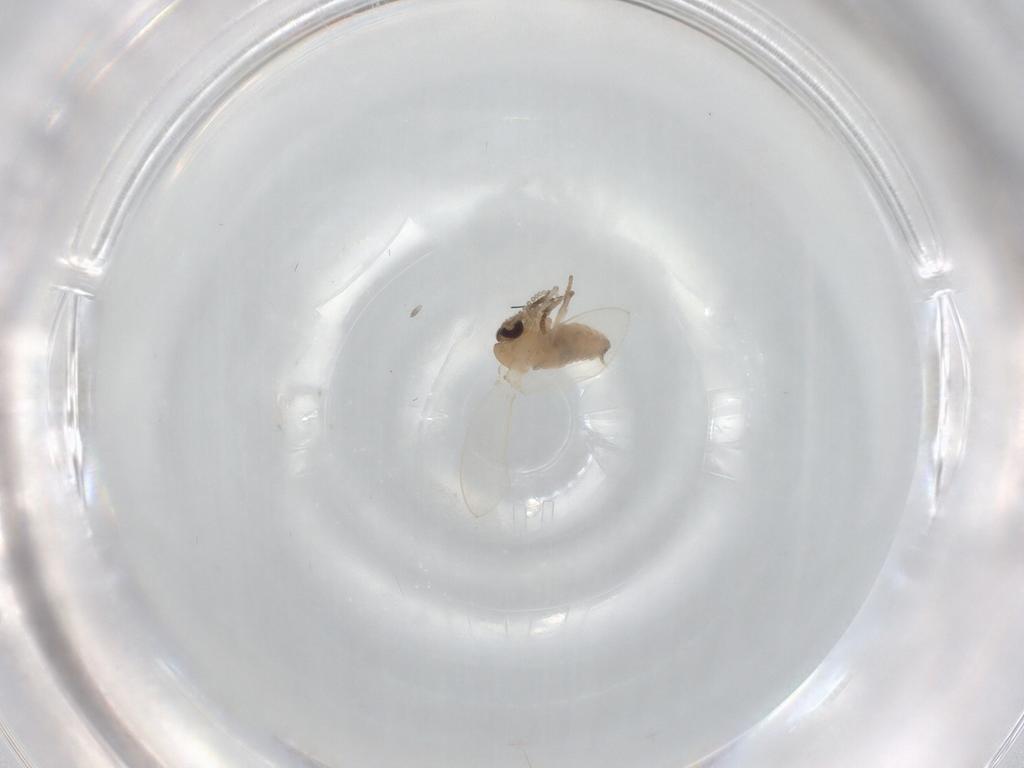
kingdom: Animalia
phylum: Arthropoda
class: Insecta
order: Diptera
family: Psychodidae
